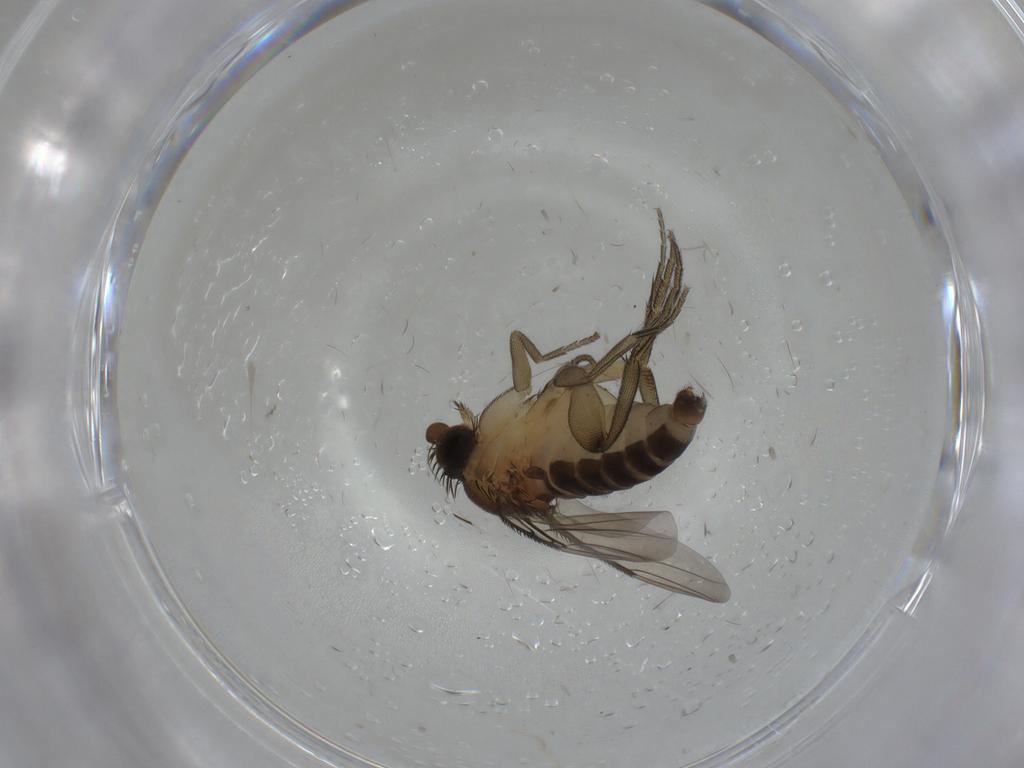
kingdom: Animalia
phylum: Arthropoda
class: Insecta
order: Diptera
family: Phoridae
